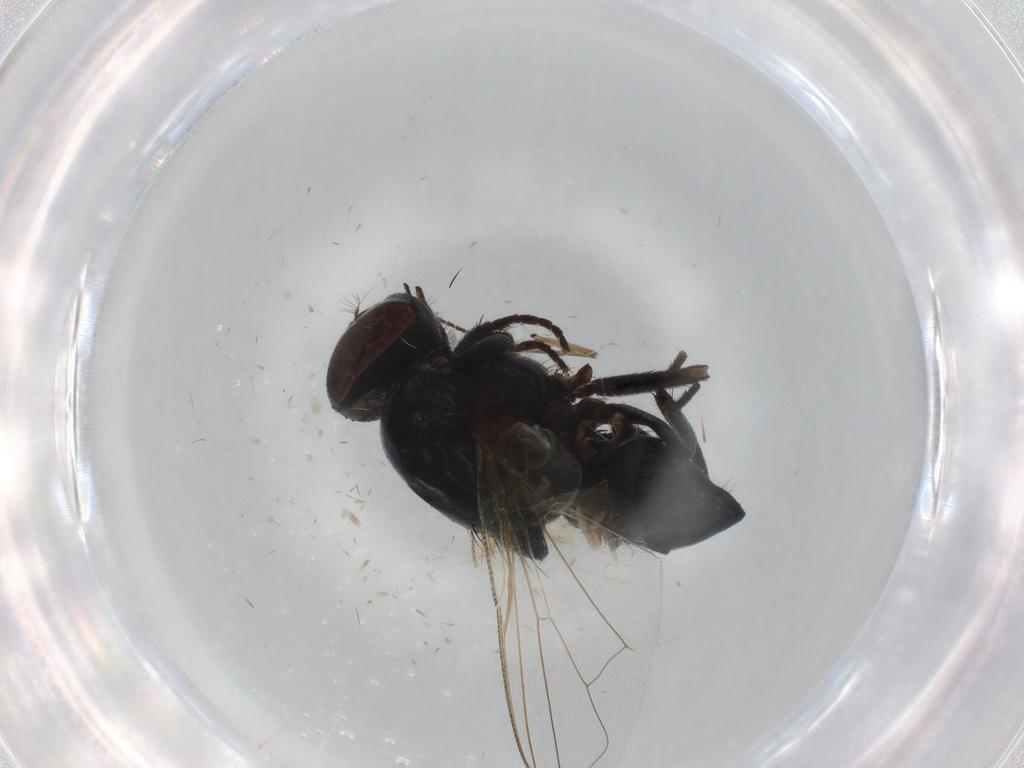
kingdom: Animalia
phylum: Arthropoda
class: Insecta
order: Diptera
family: Muscidae
